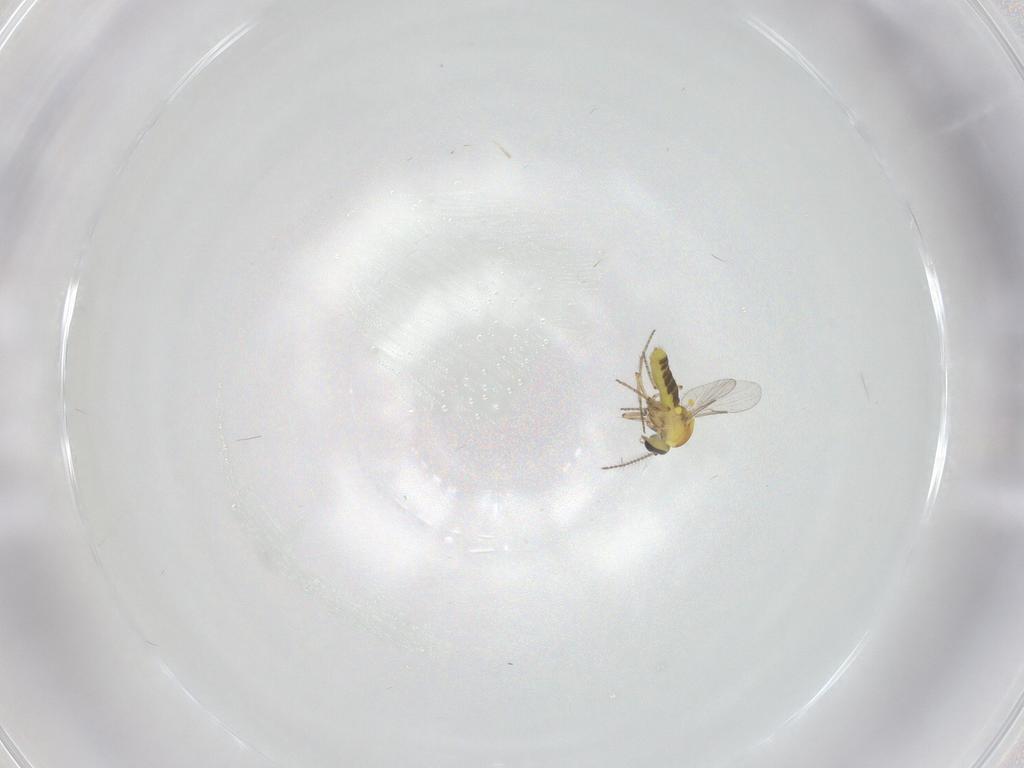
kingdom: Animalia
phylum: Arthropoda
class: Insecta
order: Diptera
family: Ceratopogonidae
